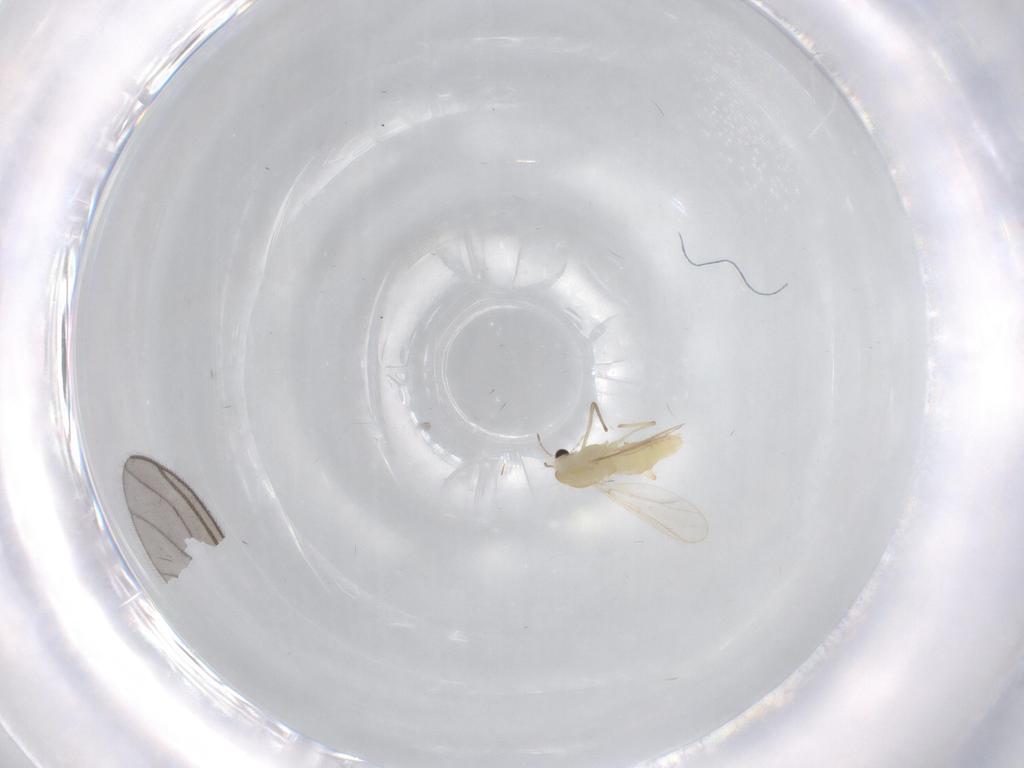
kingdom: Animalia
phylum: Arthropoda
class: Insecta
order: Diptera
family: Chironomidae
